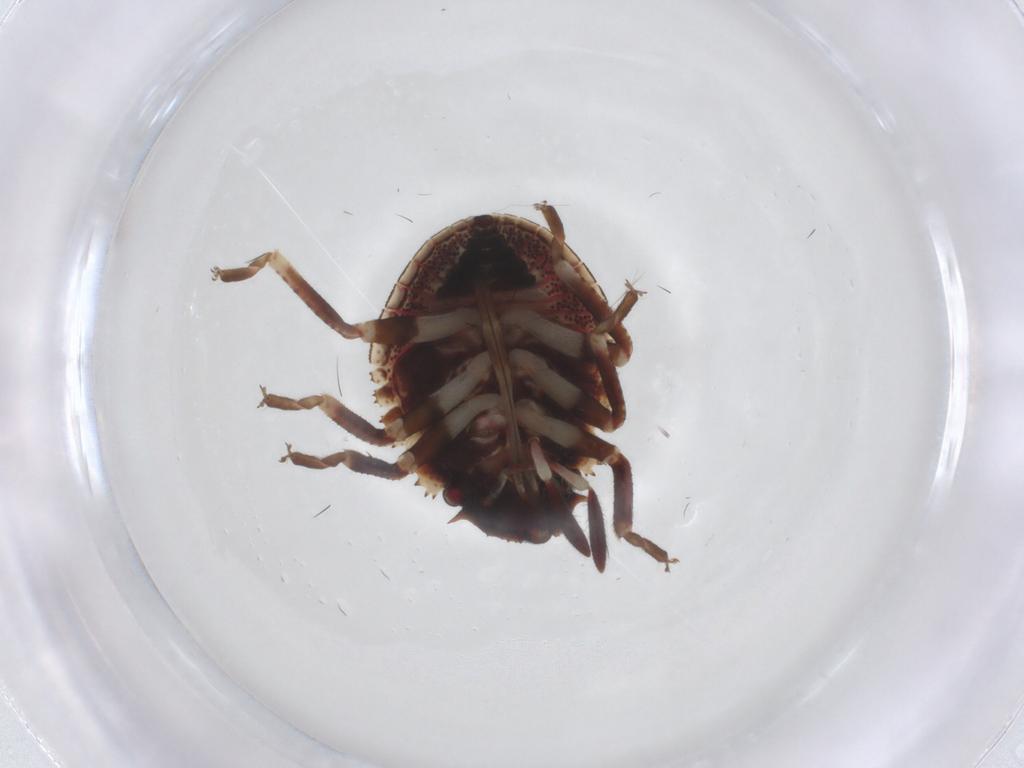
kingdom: Animalia
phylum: Arthropoda
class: Insecta
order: Hemiptera
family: Scutelleridae
